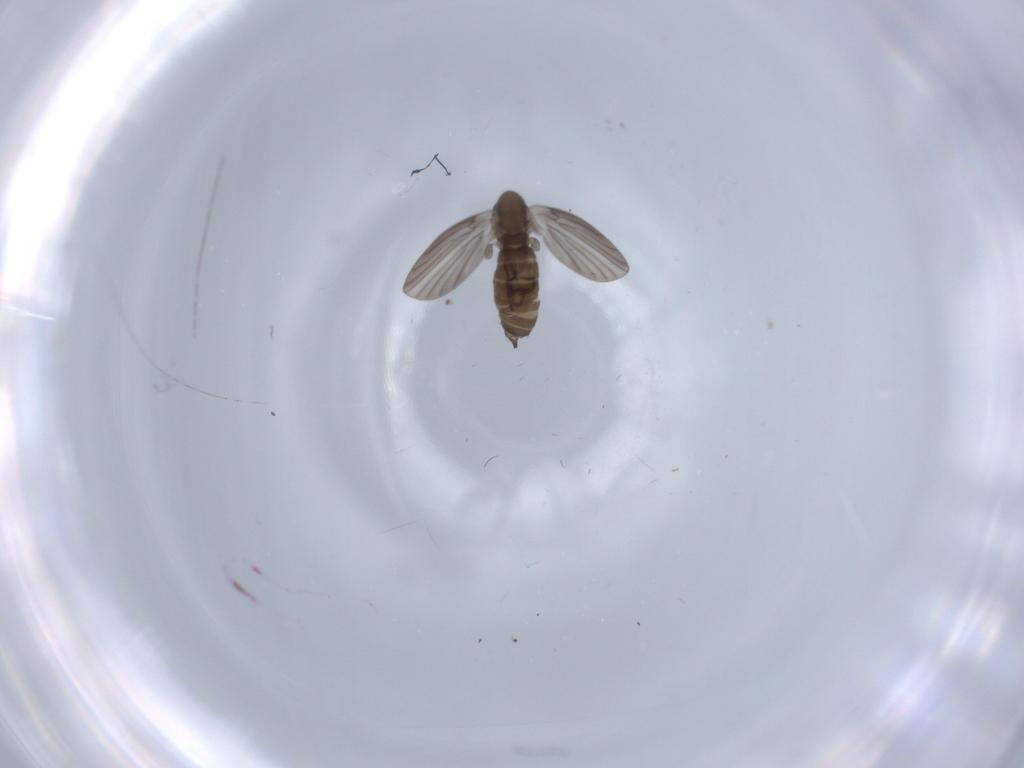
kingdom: Animalia
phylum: Arthropoda
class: Insecta
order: Diptera
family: Cecidomyiidae
